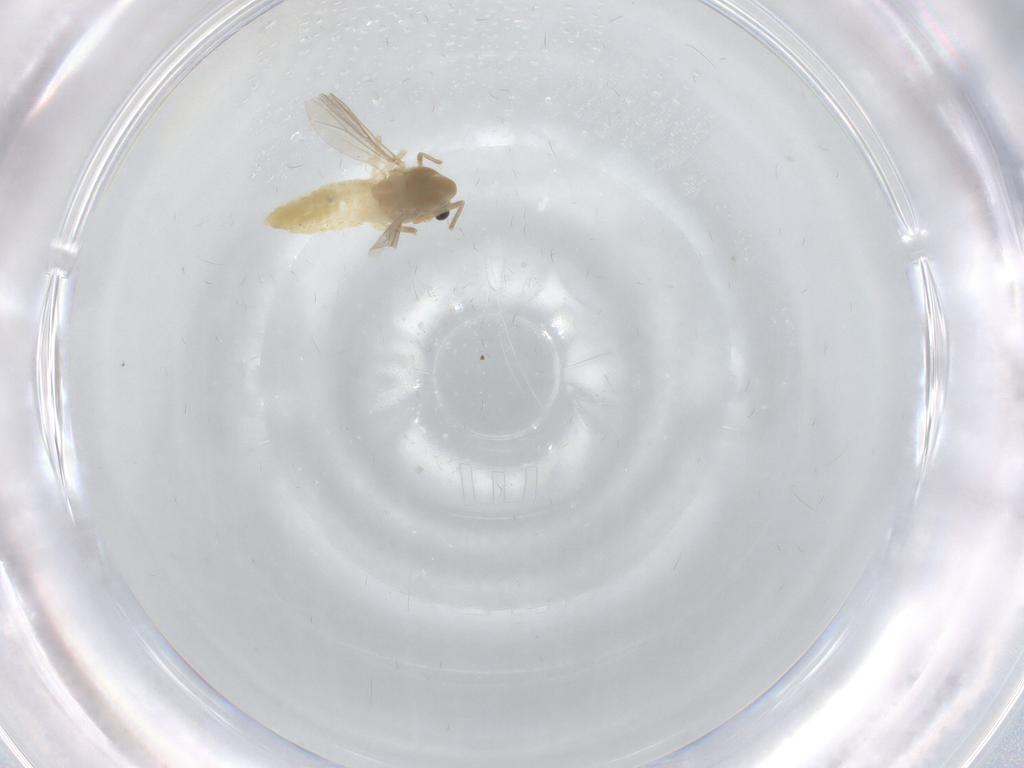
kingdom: Animalia
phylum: Arthropoda
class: Insecta
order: Diptera
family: Chironomidae
